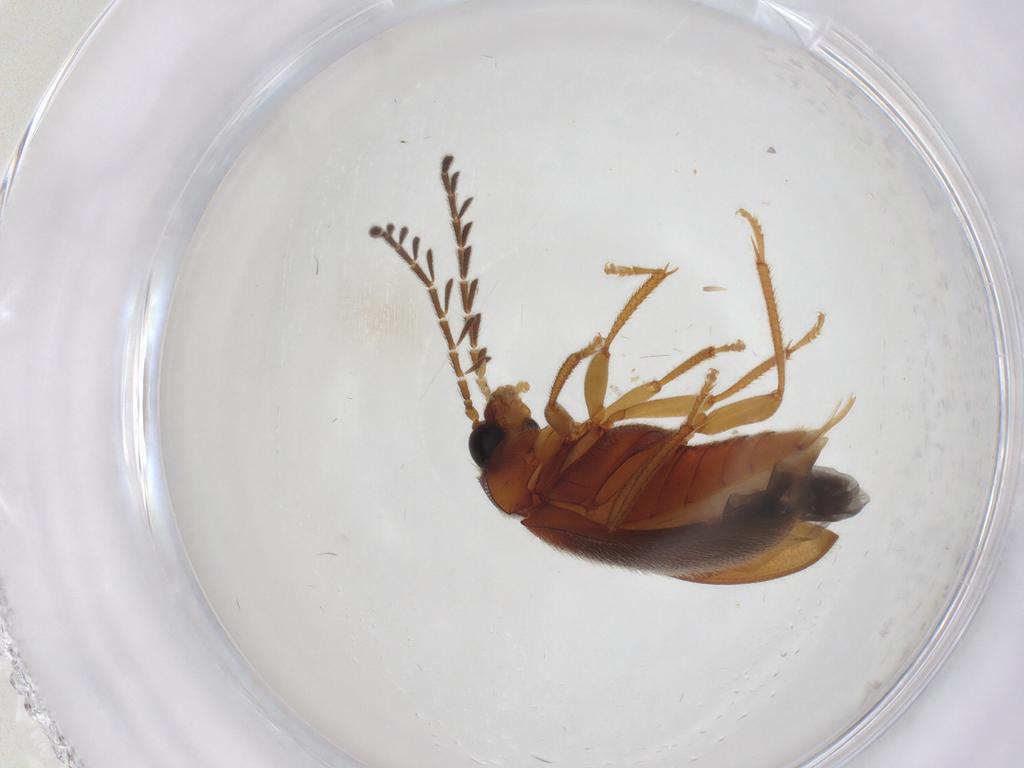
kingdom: Animalia
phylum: Arthropoda
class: Insecta
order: Coleoptera
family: Ptilodactylidae
